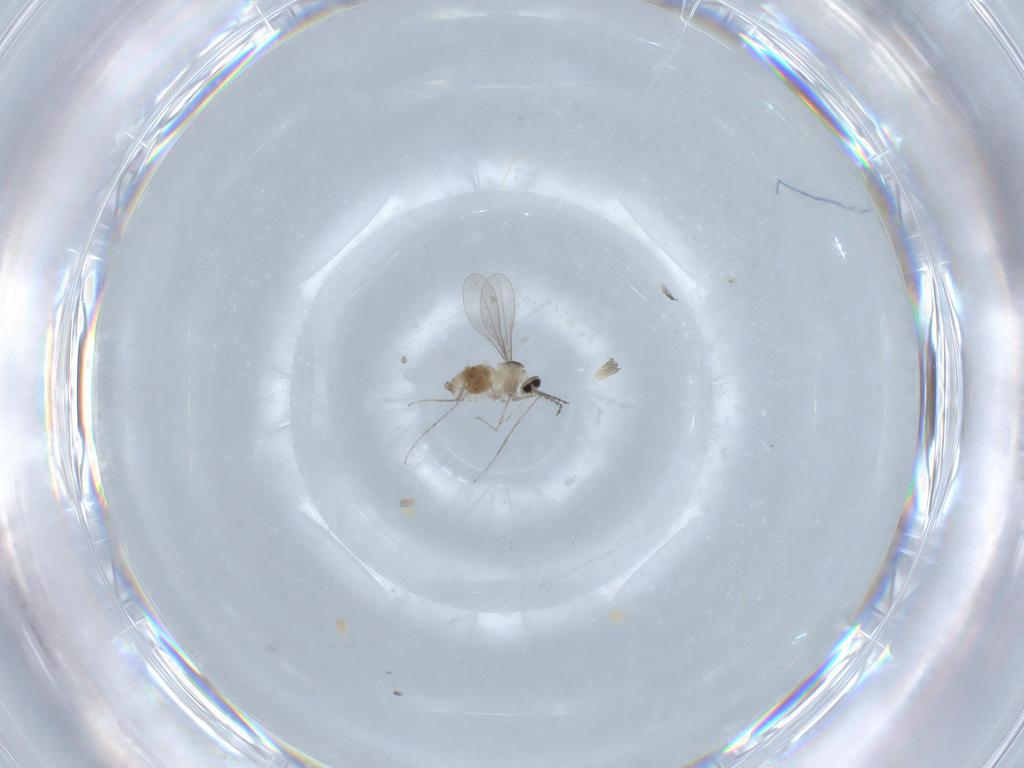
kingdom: Animalia
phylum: Arthropoda
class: Insecta
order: Diptera
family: Cecidomyiidae
